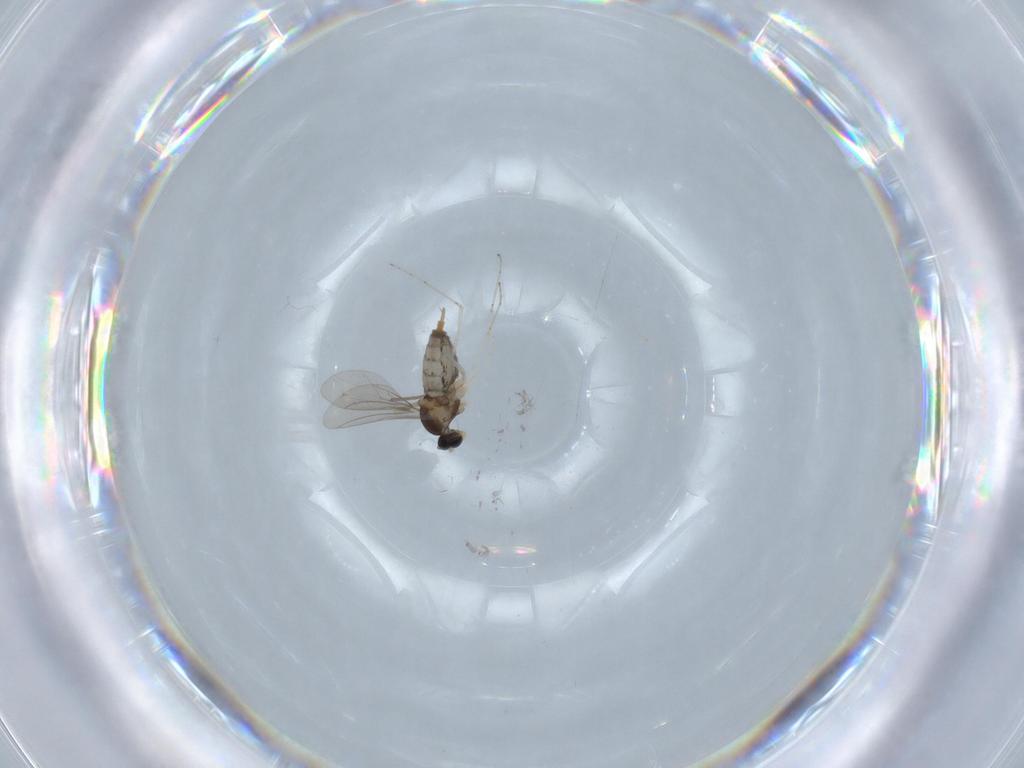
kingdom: Animalia
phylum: Arthropoda
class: Insecta
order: Diptera
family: Cecidomyiidae
